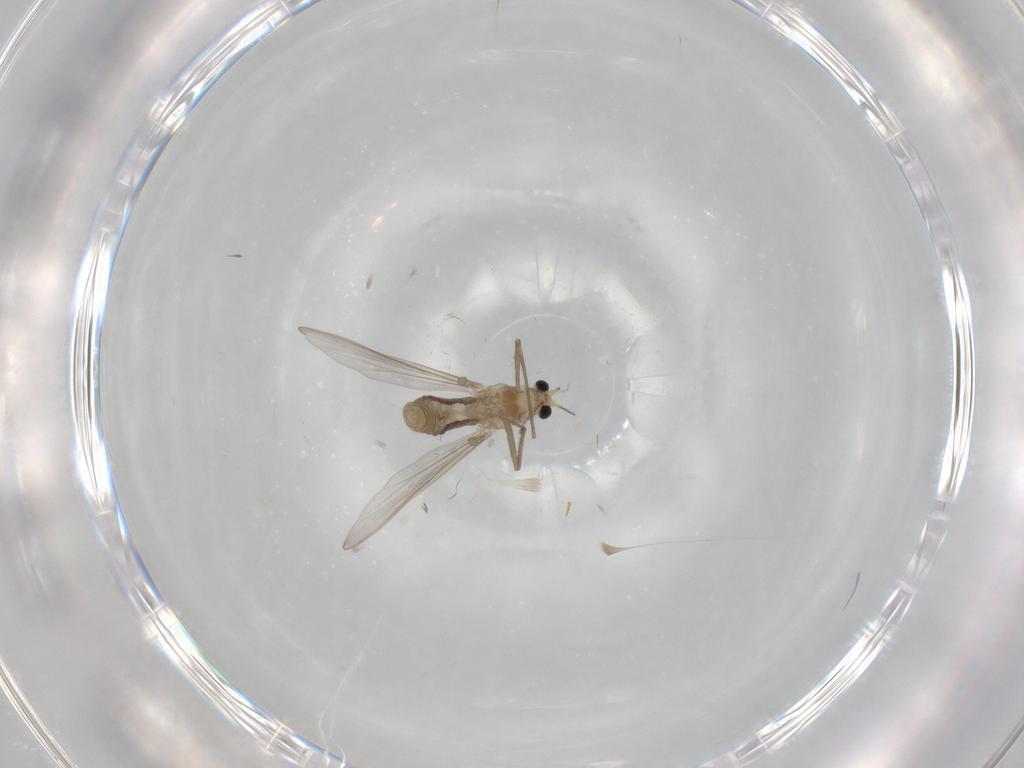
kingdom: Animalia
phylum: Arthropoda
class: Insecta
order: Diptera
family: Chironomidae
